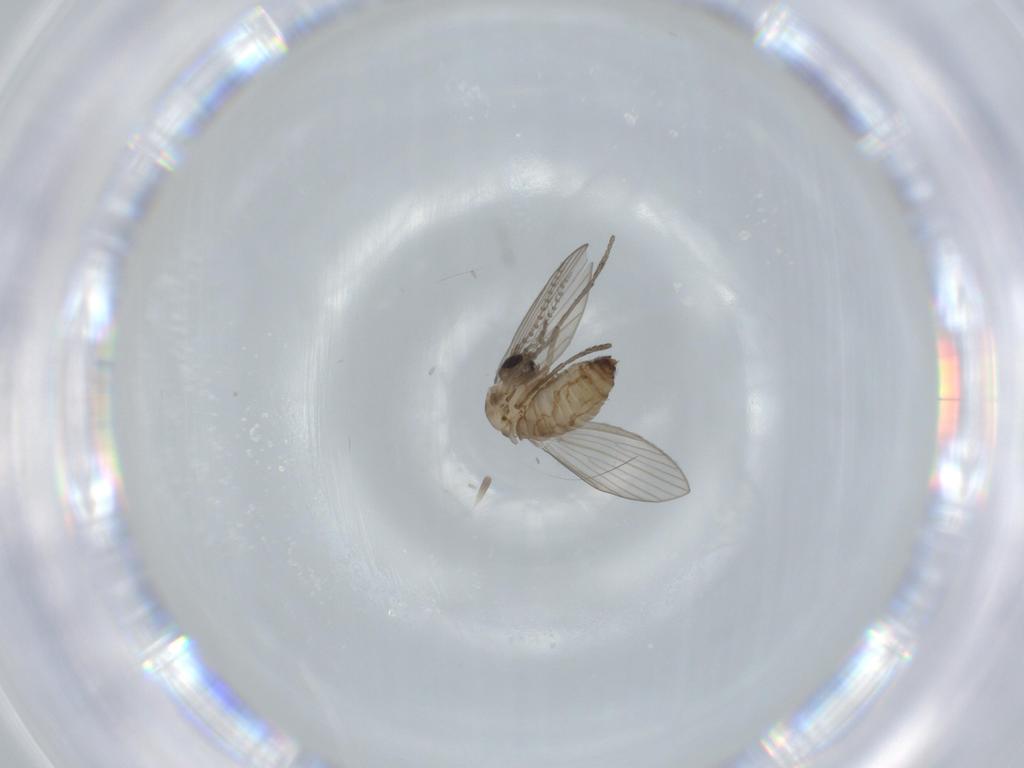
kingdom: Animalia
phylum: Arthropoda
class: Insecta
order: Diptera
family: Psychodidae
